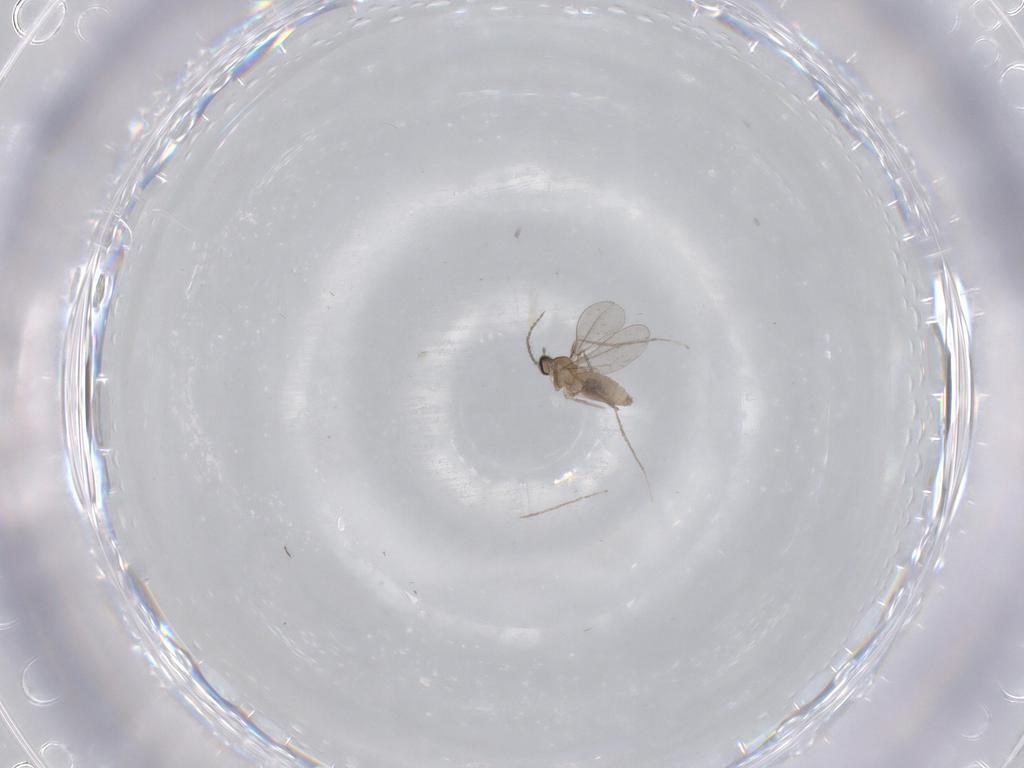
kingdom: Animalia
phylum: Arthropoda
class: Insecta
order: Diptera
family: Cecidomyiidae
